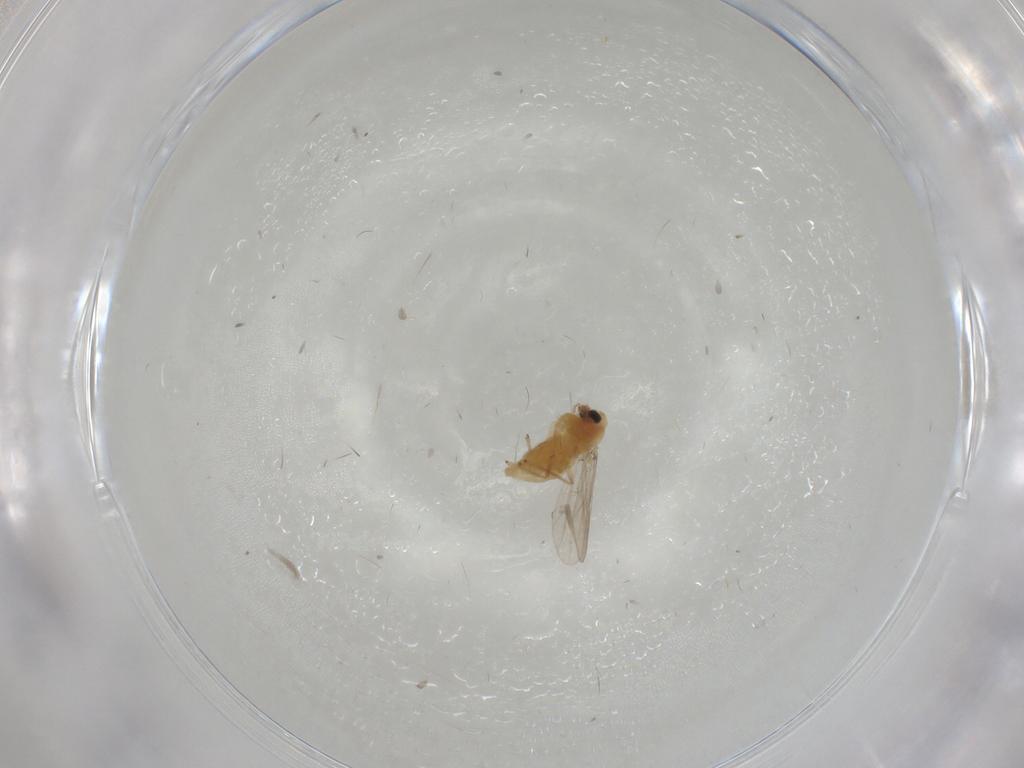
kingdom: Animalia
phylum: Arthropoda
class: Insecta
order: Diptera
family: Chironomidae
